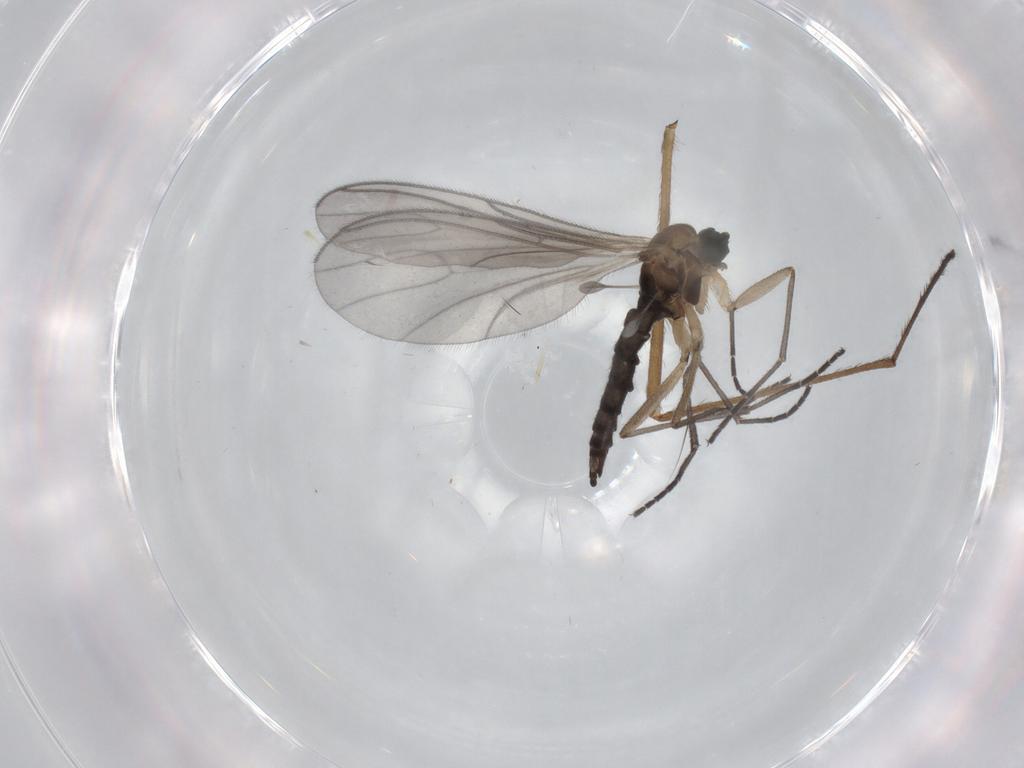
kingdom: Animalia
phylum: Arthropoda
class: Insecta
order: Diptera
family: Sciaridae
